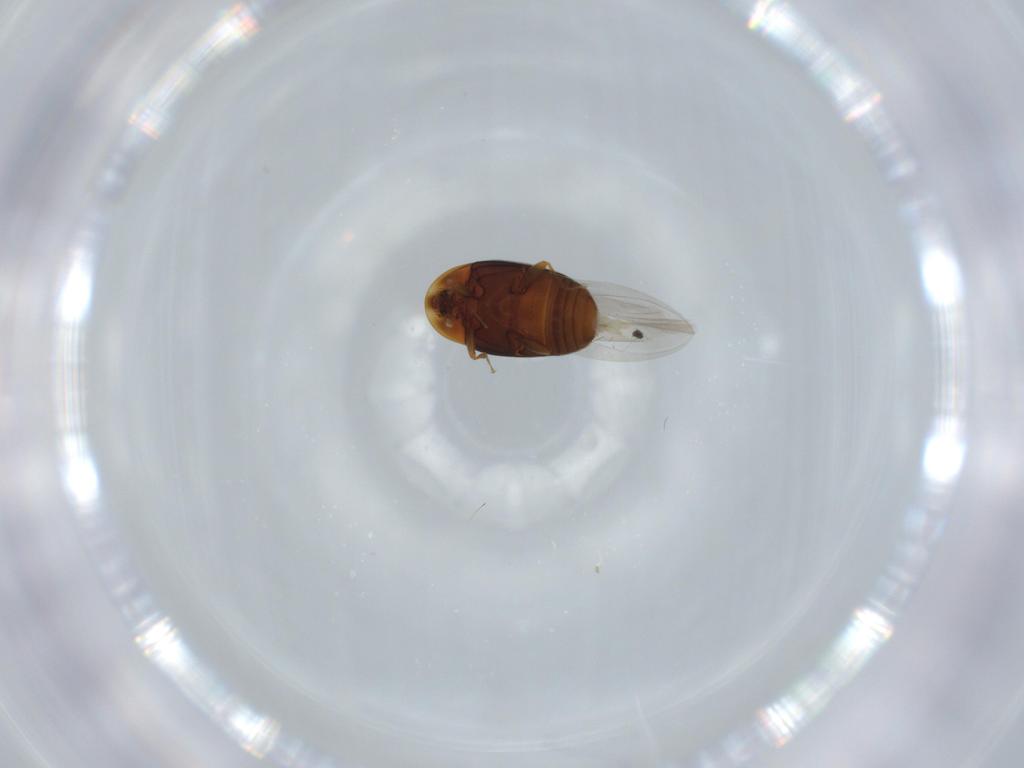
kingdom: Animalia
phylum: Arthropoda
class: Insecta
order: Coleoptera
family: Corylophidae
